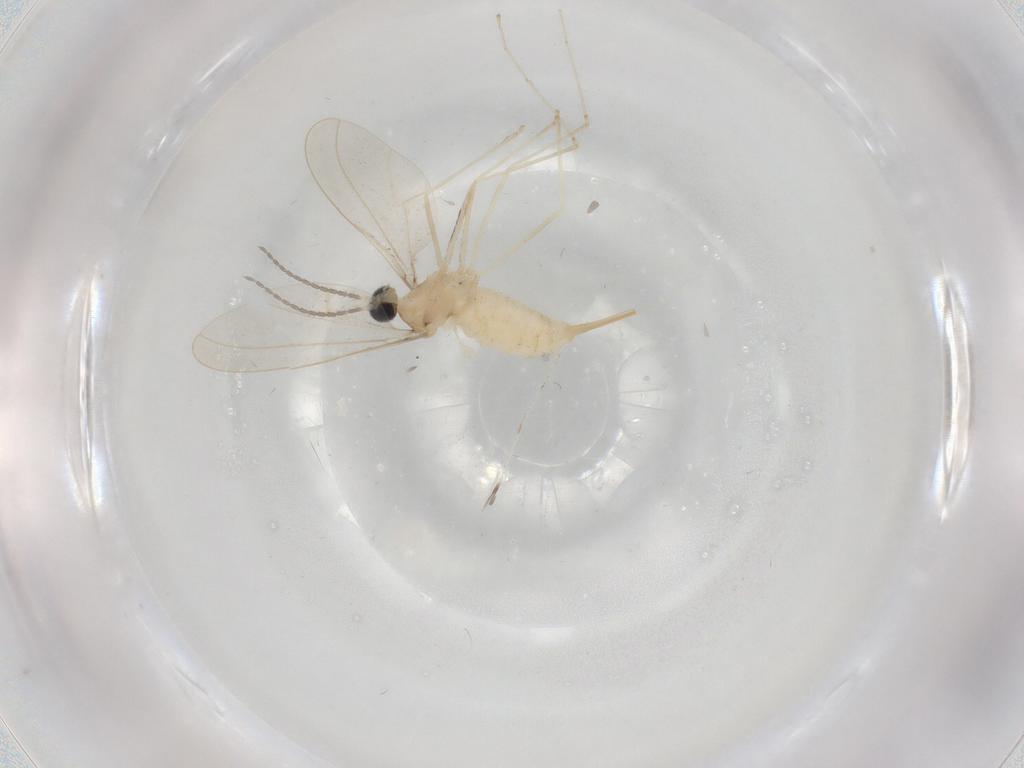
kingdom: Animalia
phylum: Arthropoda
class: Insecta
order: Diptera
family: Cecidomyiidae
